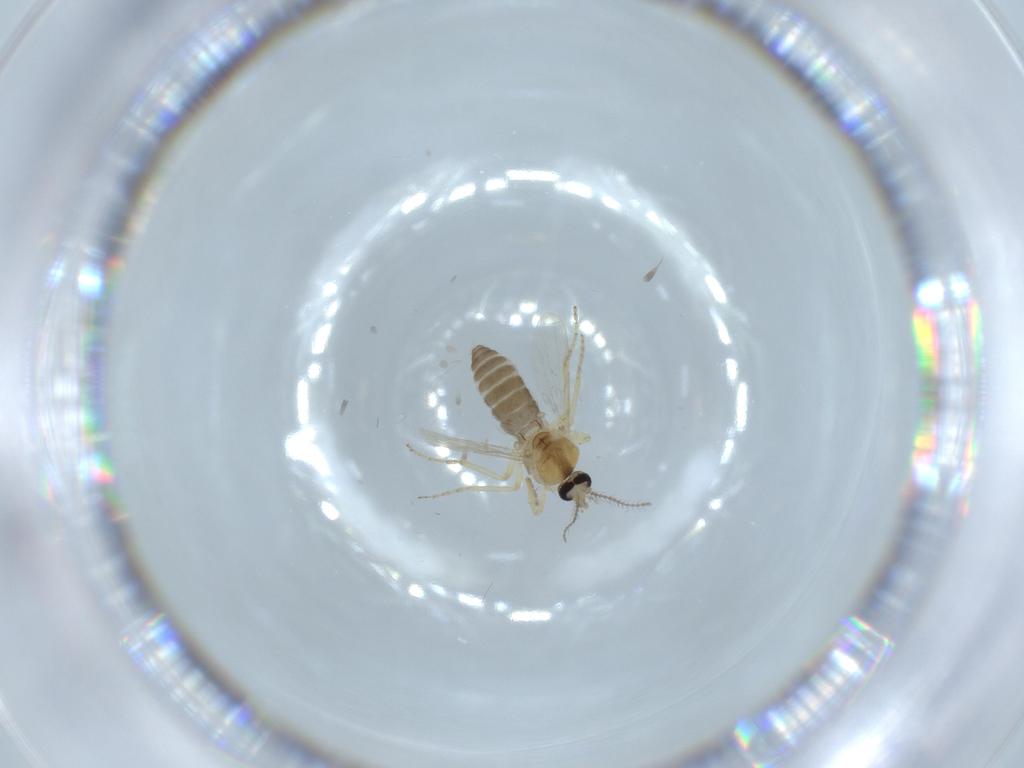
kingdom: Animalia
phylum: Arthropoda
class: Insecta
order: Diptera
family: Ceratopogonidae
